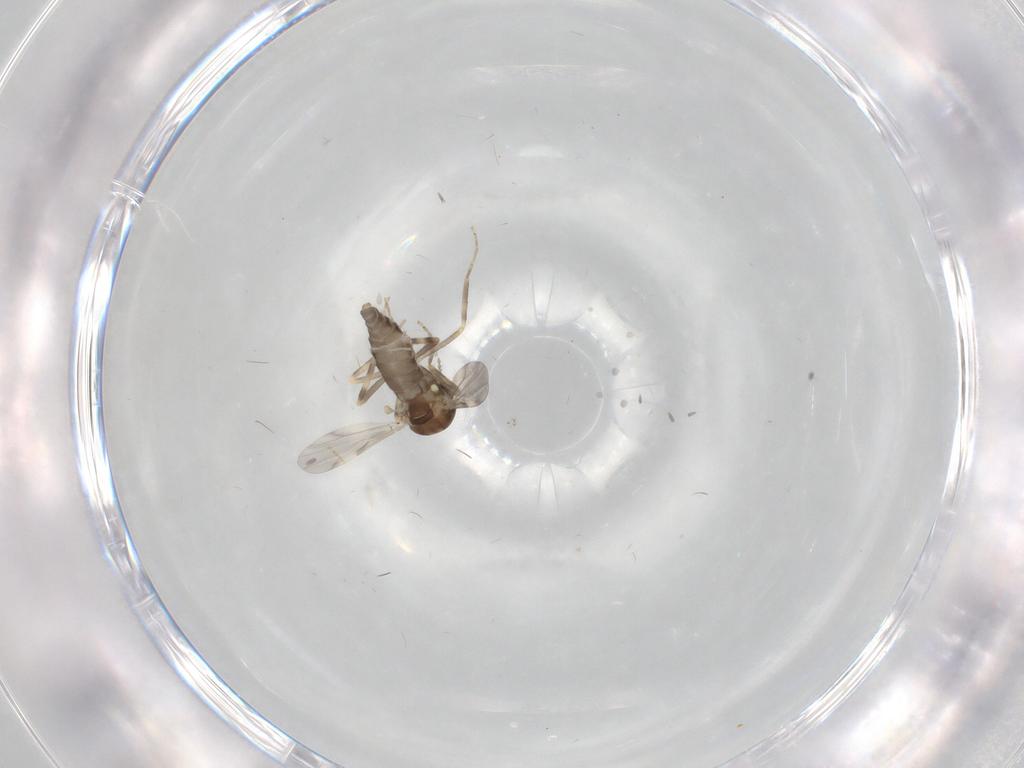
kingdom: Animalia
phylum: Arthropoda
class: Insecta
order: Diptera
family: Ceratopogonidae
